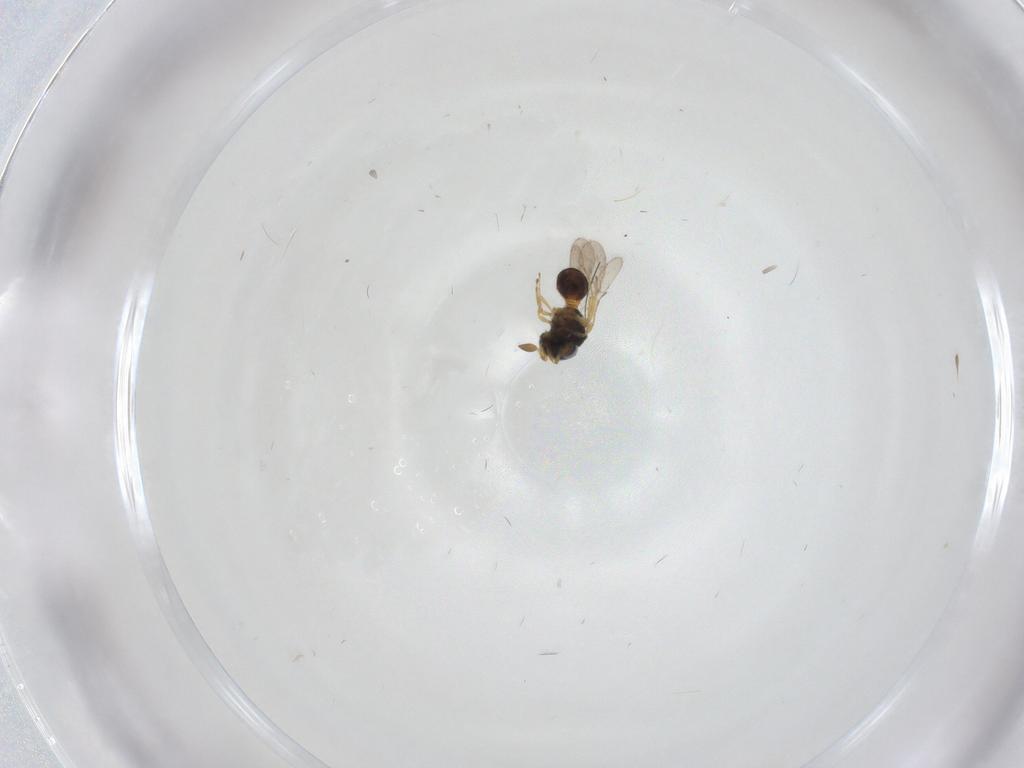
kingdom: Animalia
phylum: Arthropoda
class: Insecta
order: Hymenoptera
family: Scelionidae
